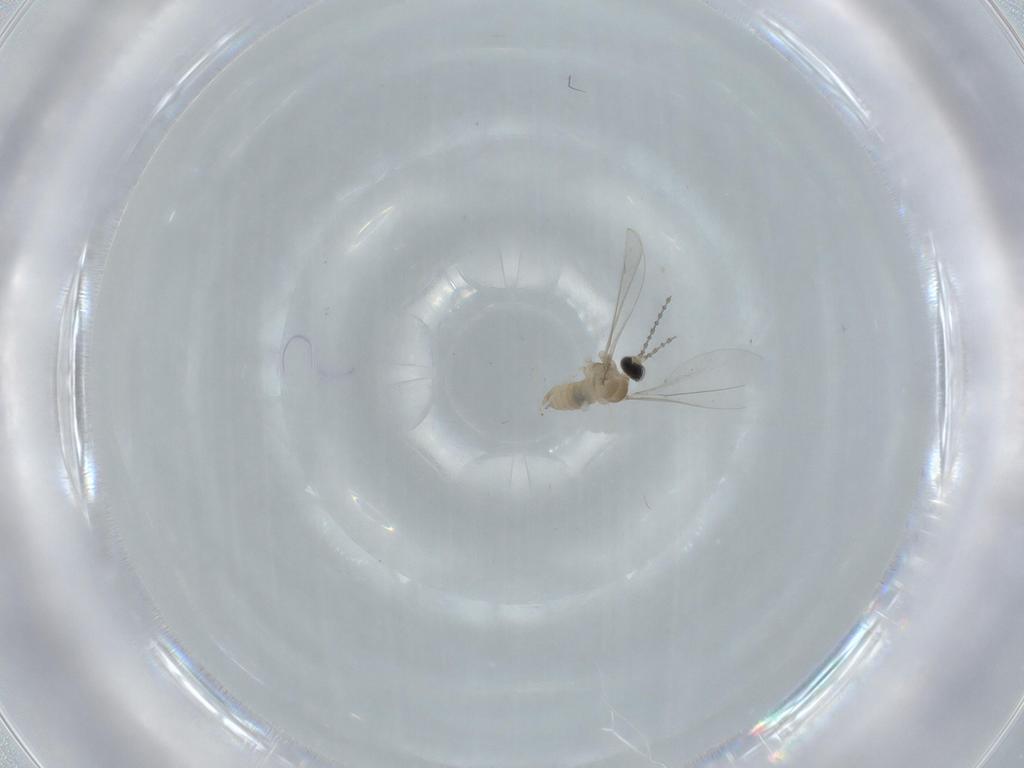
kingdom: Animalia
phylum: Arthropoda
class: Insecta
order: Diptera
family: Cecidomyiidae
